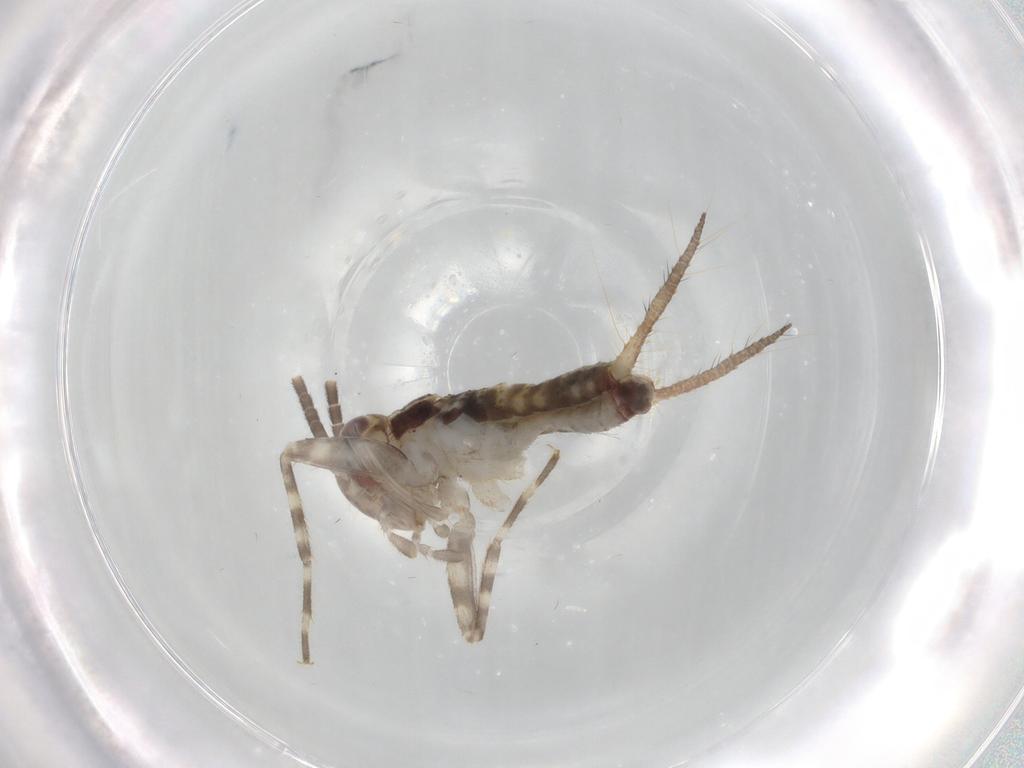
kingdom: Animalia
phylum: Arthropoda
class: Insecta
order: Orthoptera
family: Gryllidae
